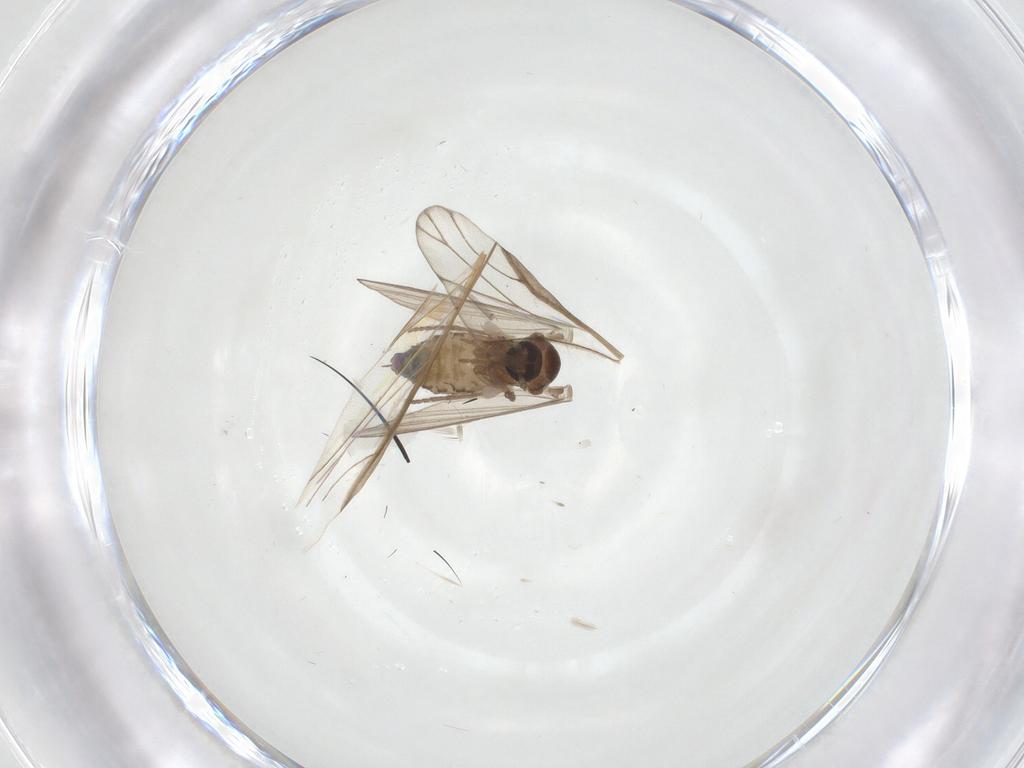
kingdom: Animalia
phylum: Arthropoda
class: Insecta
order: Diptera
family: Psychodidae
